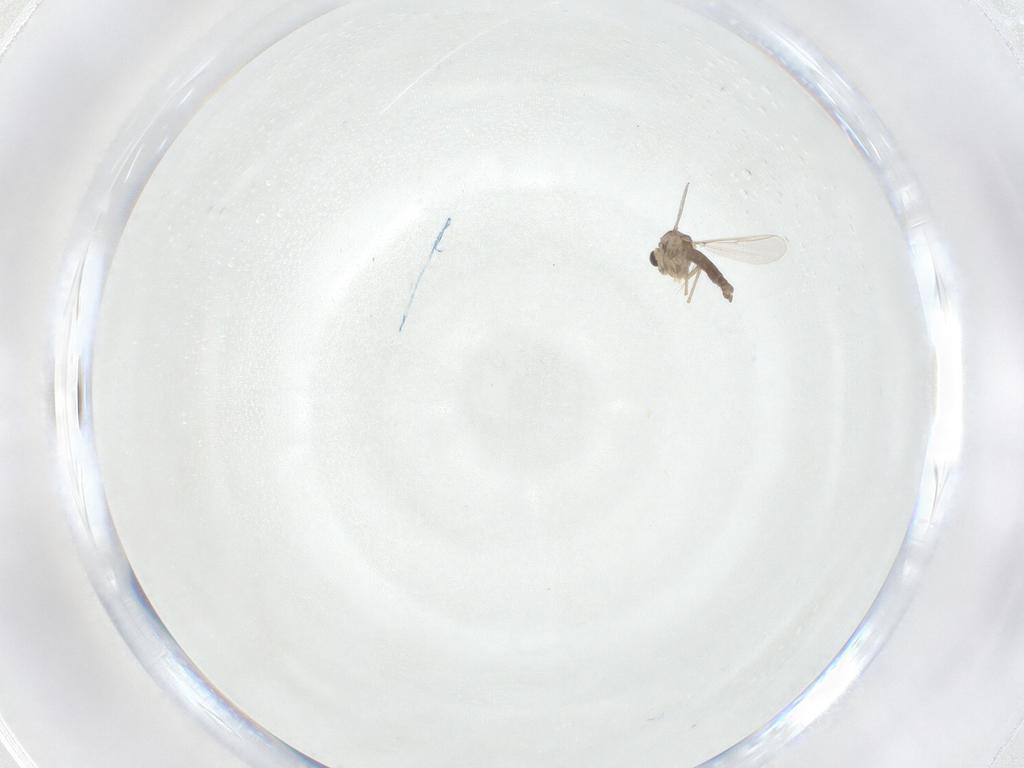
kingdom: Animalia
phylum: Arthropoda
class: Insecta
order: Diptera
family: Chironomidae
